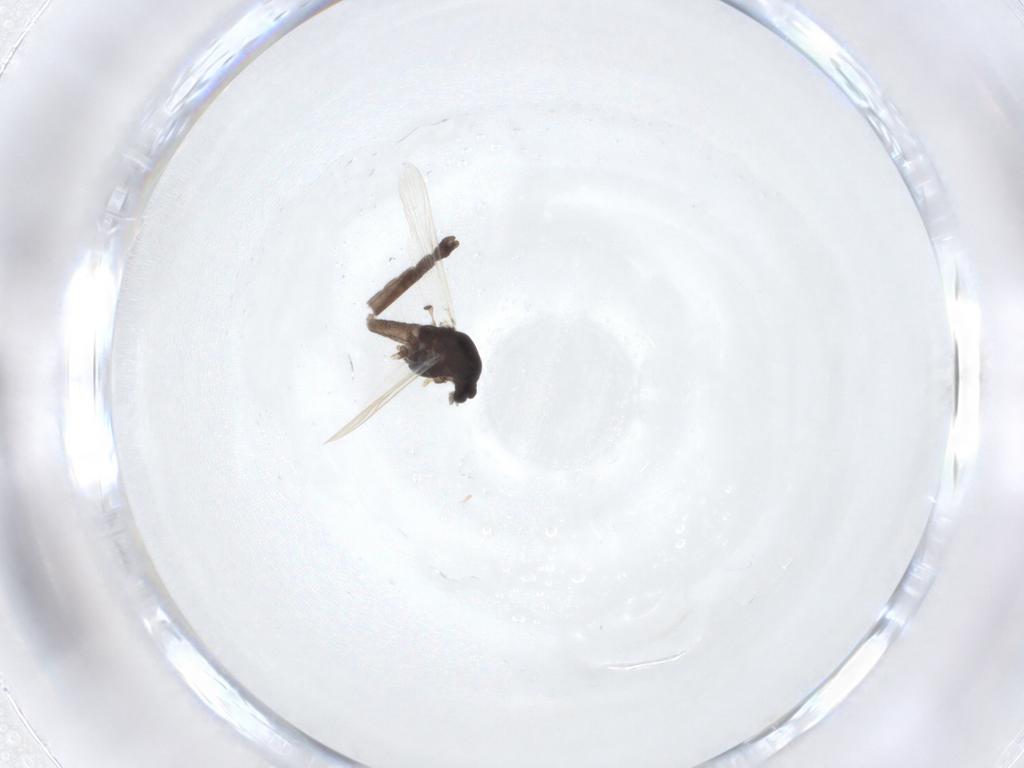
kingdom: Animalia
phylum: Arthropoda
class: Insecta
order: Diptera
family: Chironomidae
